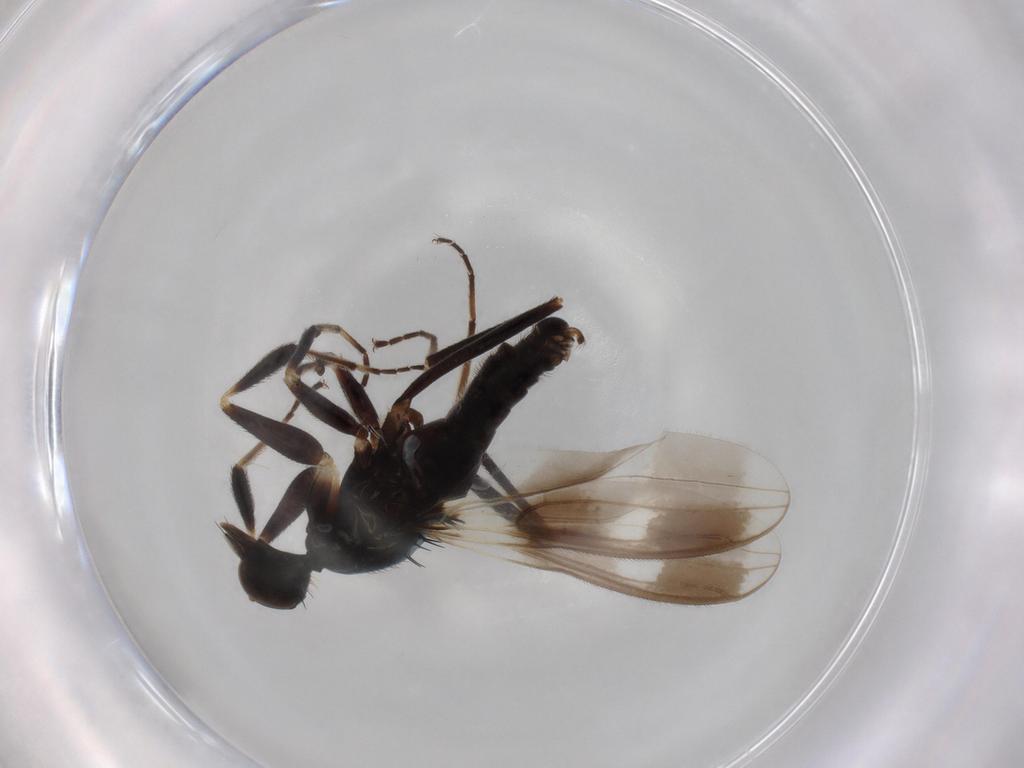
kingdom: Animalia
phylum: Arthropoda
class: Insecta
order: Diptera
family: Hybotidae
